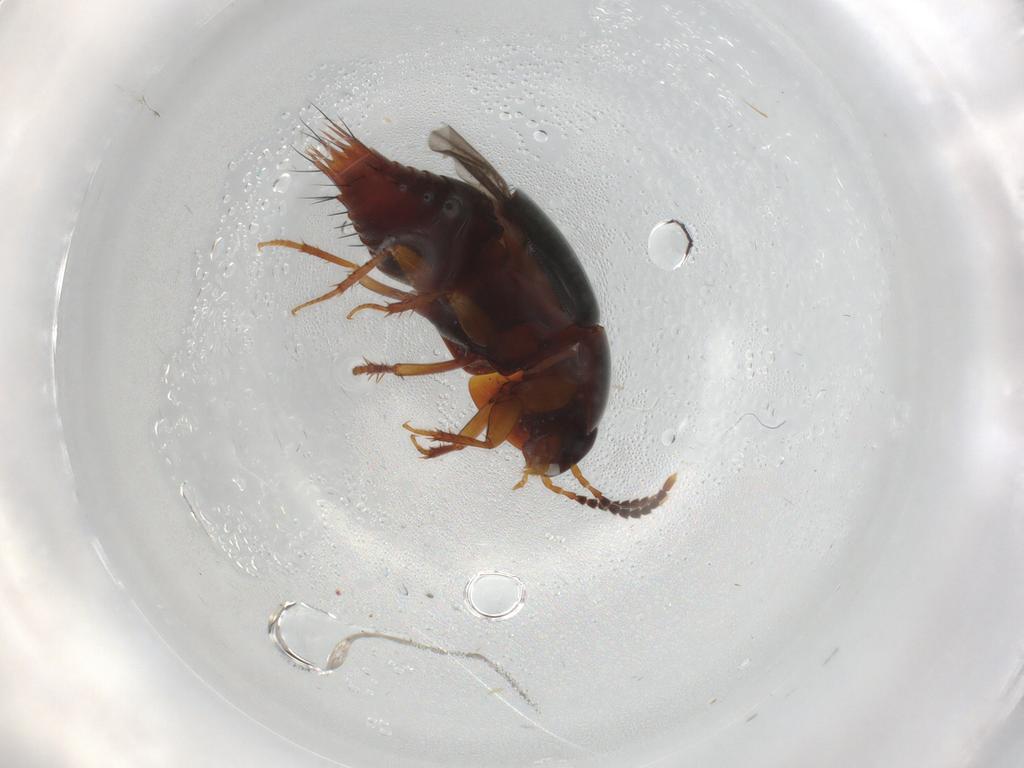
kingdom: Animalia
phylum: Arthropoda
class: Insecta
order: Coleoptera
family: Staphylinidae
